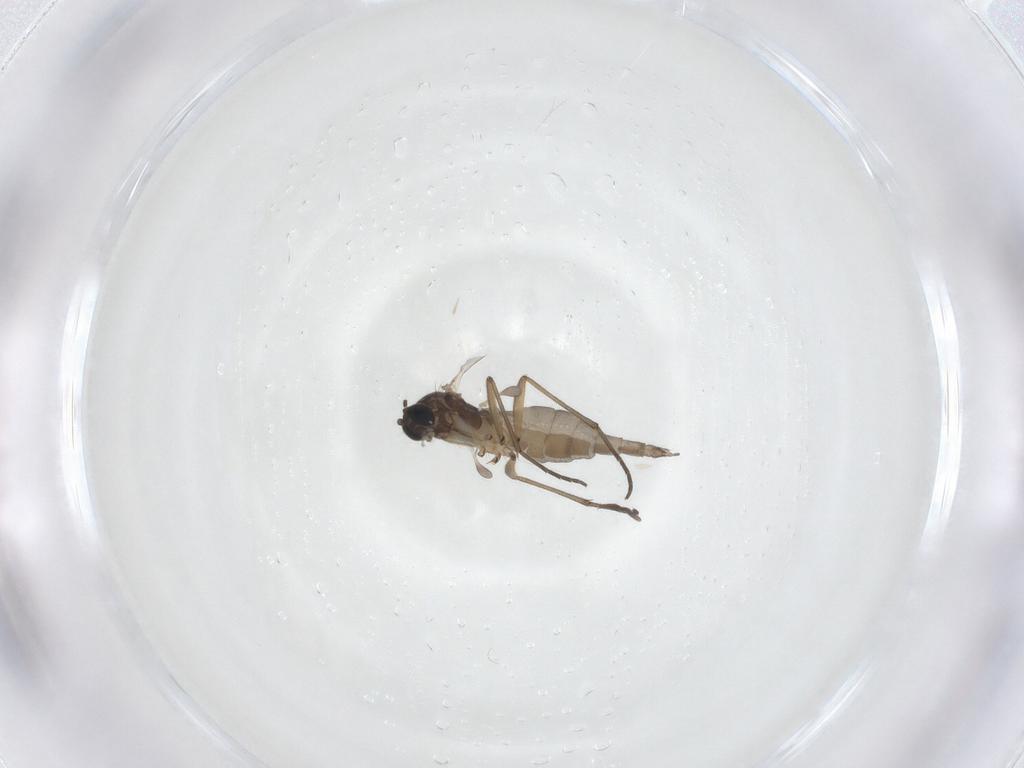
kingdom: Animalia
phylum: Arthropoda
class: Insecta
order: Diptera
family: Sciaridae
